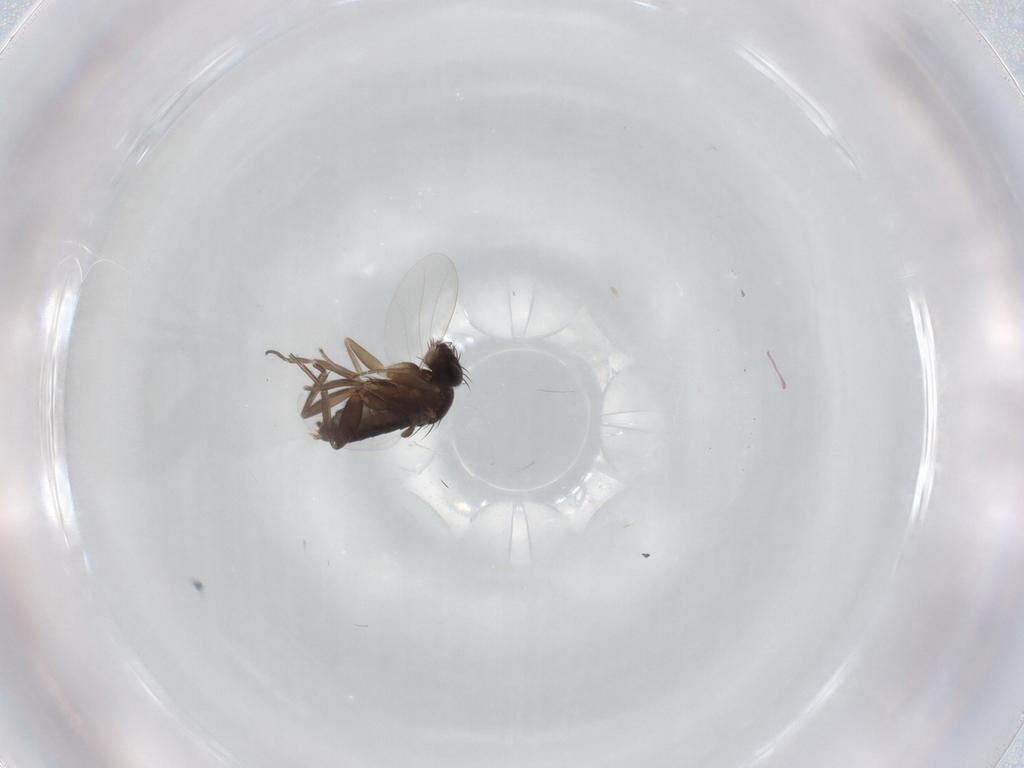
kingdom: Animalia
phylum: Arthropoda
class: Insecta
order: Diptera
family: Phoridae
